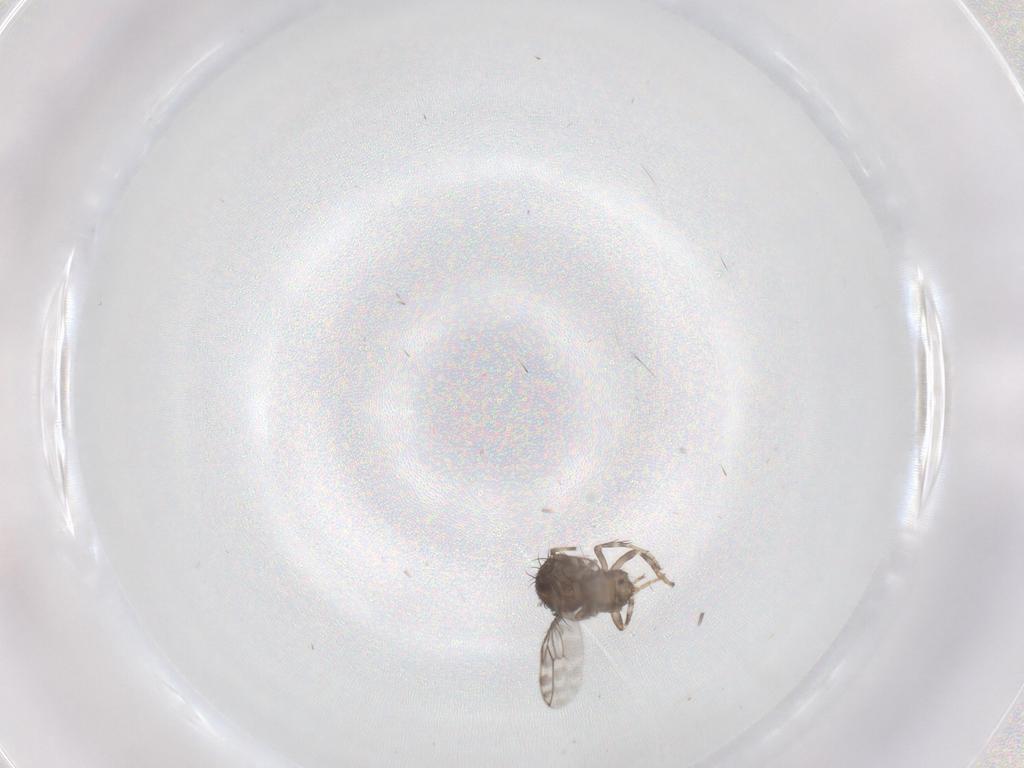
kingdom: Animalia
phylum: Arthropoda
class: Insecta
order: Diptera
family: Sphaeroceridae
